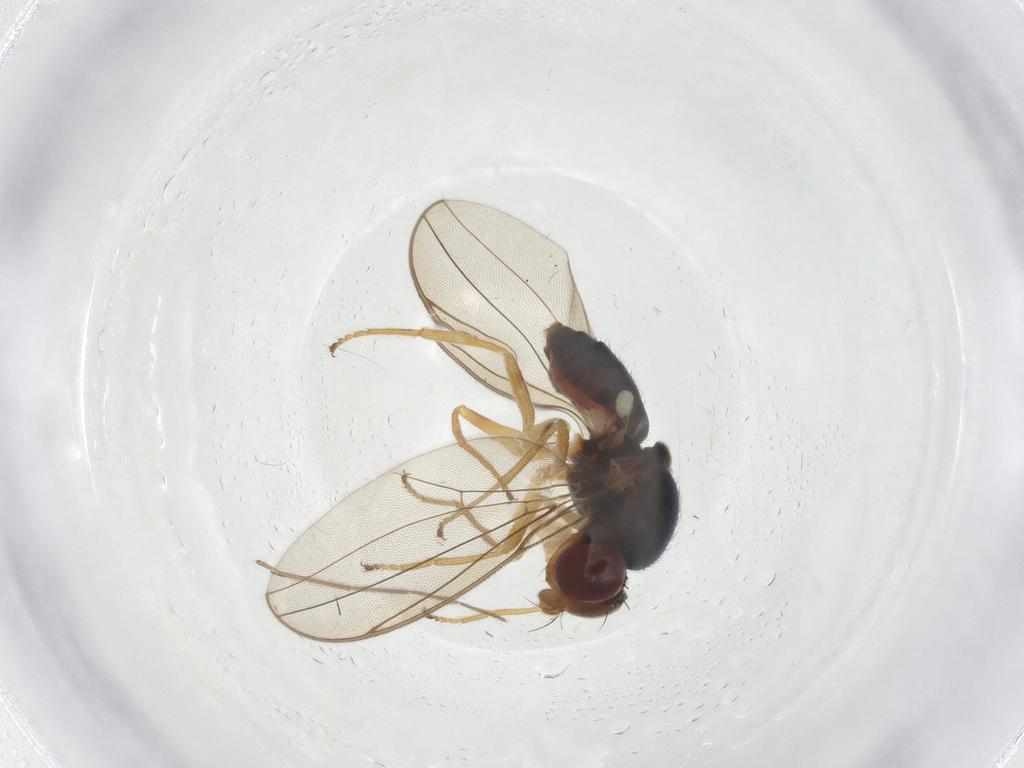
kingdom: Animalia
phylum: Arthropoda
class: Insecta
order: Diptera
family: Asteiidae
